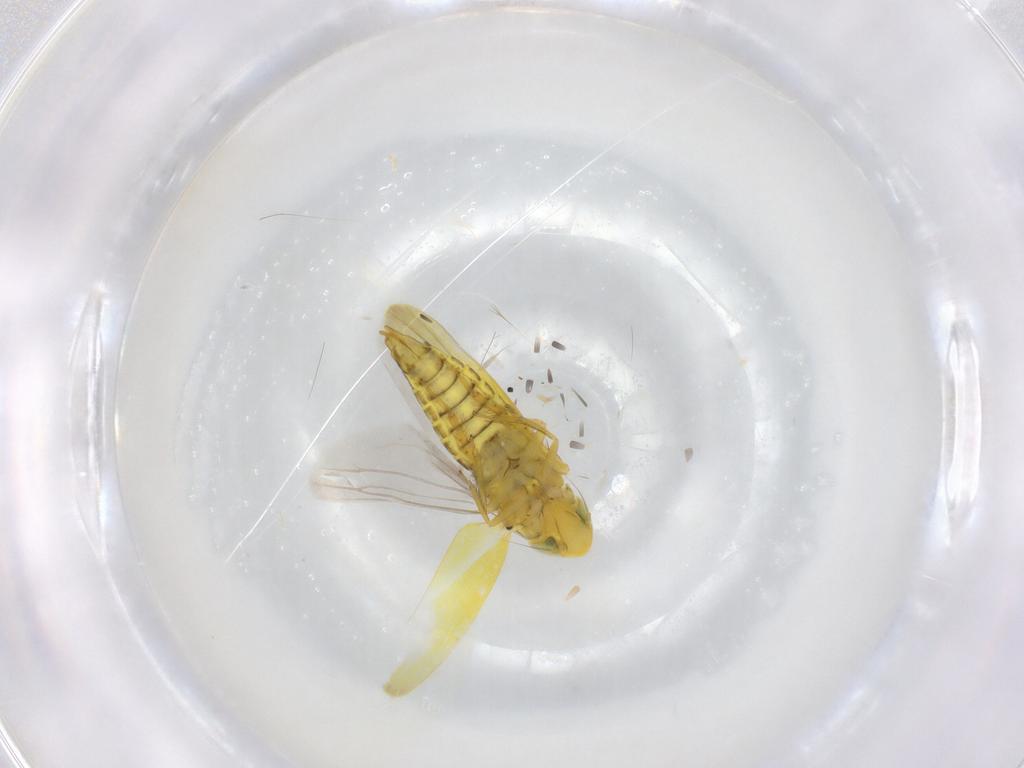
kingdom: Animalia
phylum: Arthropoda
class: Insecta
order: Hemiptera
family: Cicadellidae
